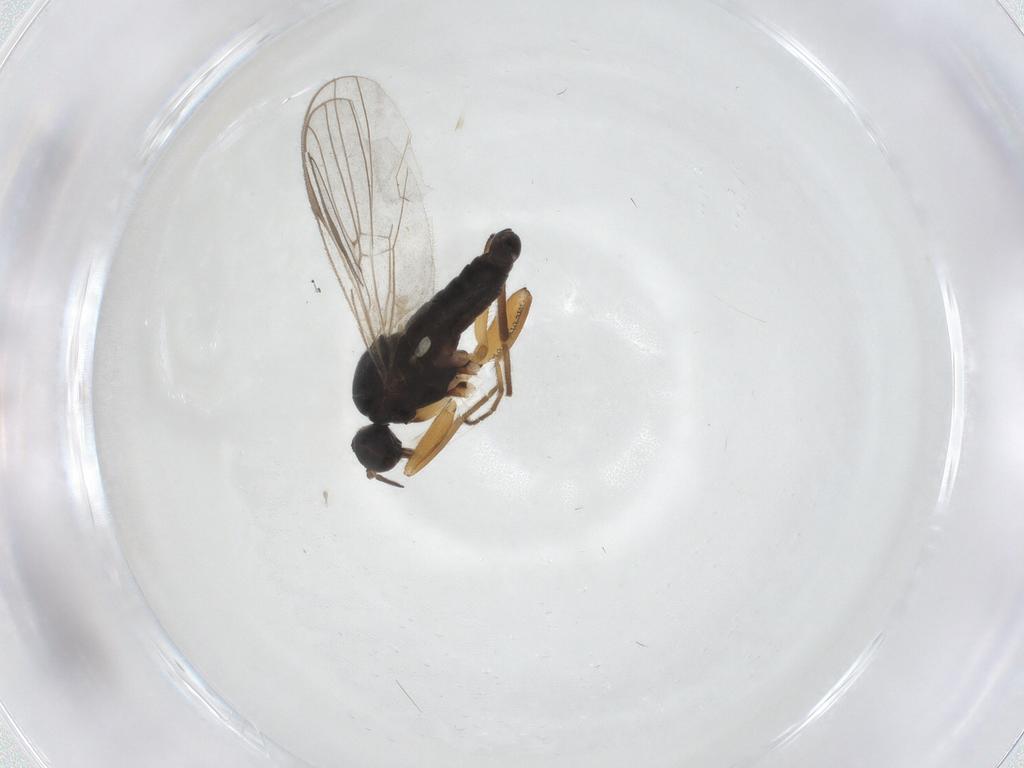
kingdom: Animalia
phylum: Arthropoda
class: Insecta
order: Diptera
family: Hybotidae
